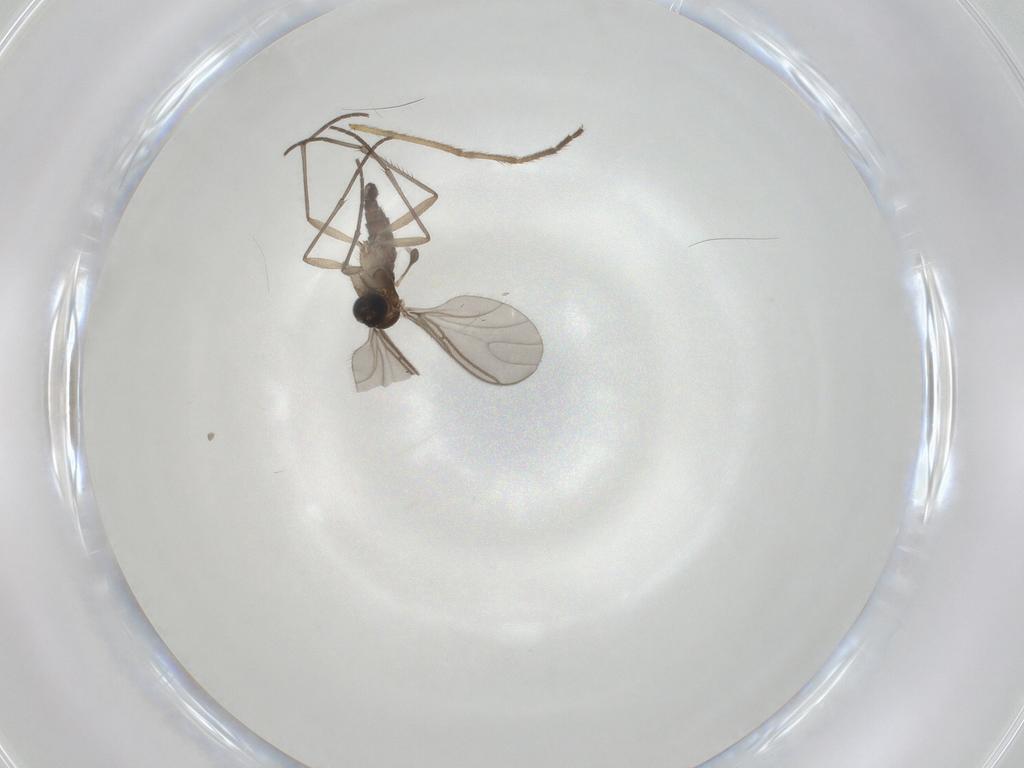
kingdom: Animalia
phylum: Arthropoda
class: Insecta
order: Diptera
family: Sciaridae
